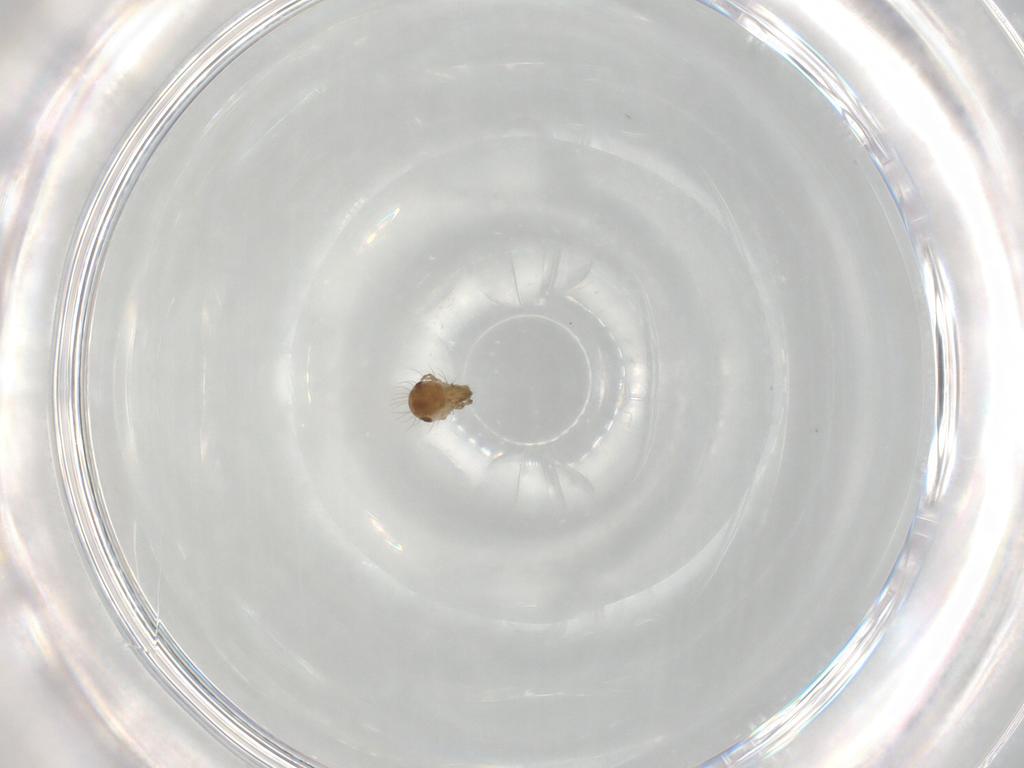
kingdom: Animalia
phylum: Arthropoda
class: Arachnida
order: Sarcoptiformes
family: Humerobatidae
